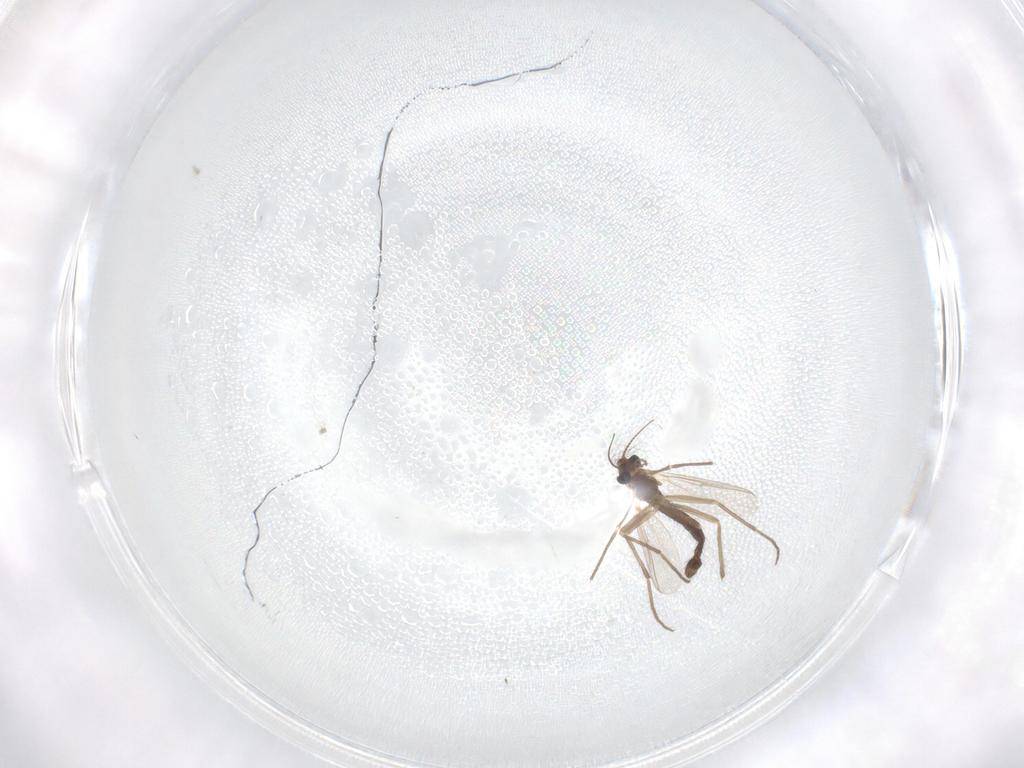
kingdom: Animalia
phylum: Arthropoda
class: Insecta
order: Diptera
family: Chironomidae
